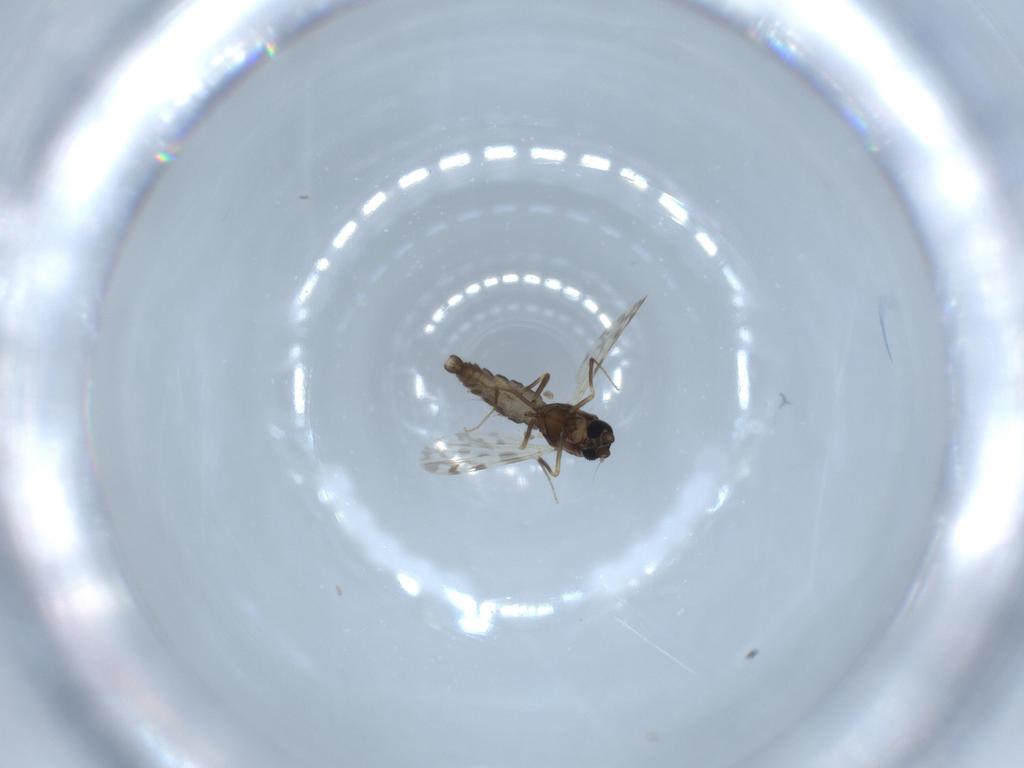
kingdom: Animalia
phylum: Arthropoda
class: Insecta
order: Diptera
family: Ceratopogonidae
